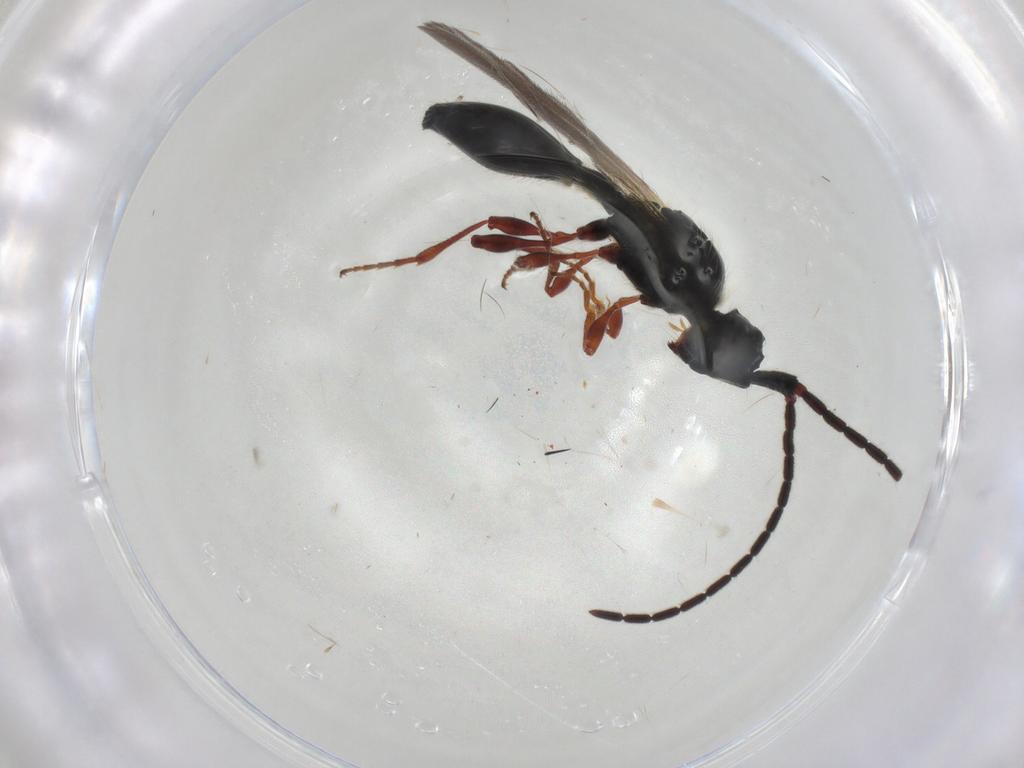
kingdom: Animalia
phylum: Arthropoda
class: Insecta
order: Hymenoptera
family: Diapriidae
